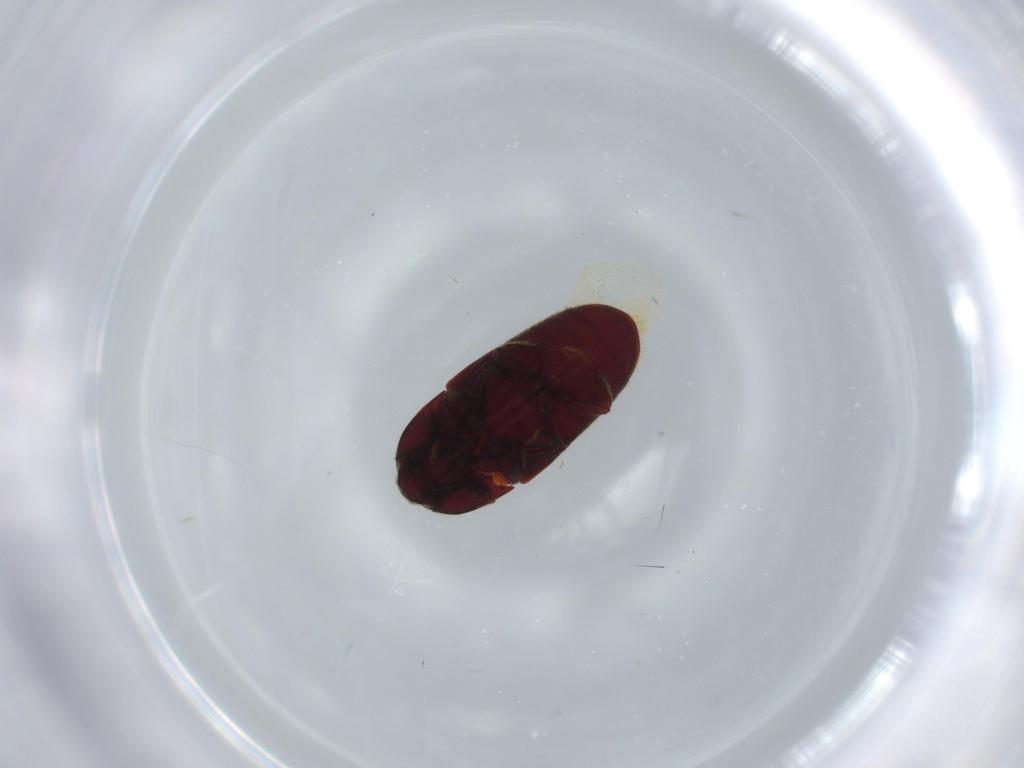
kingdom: Animalia
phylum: Arthropoda
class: Insecta
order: Coleoptera
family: Throscidae
